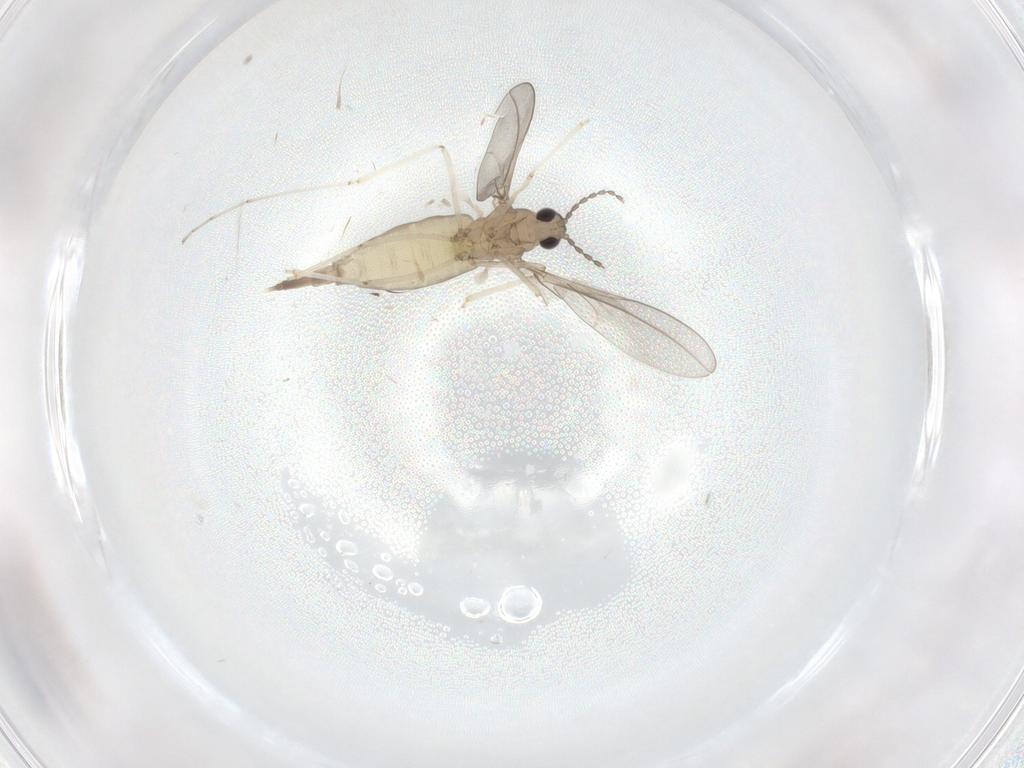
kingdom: Animalia
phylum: Arthropoda
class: Insecta
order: Diptera
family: Cecidomyiidae
